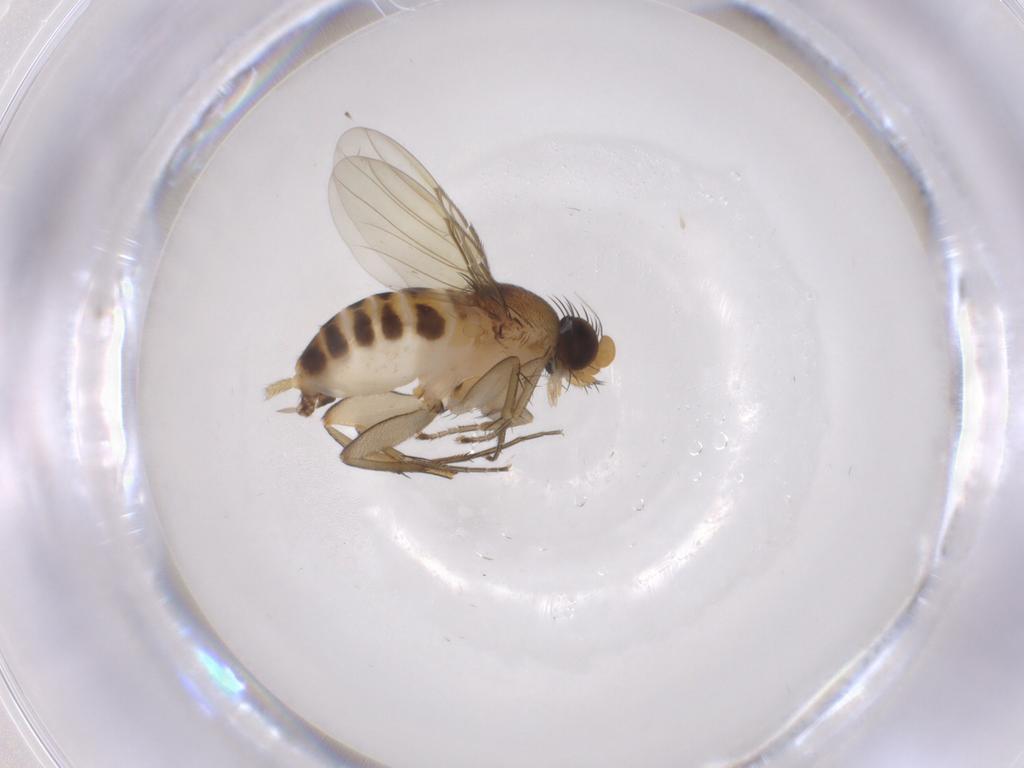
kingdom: Animalia
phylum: Arthropoda
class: Insecta
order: Diptera
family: Phoridae
